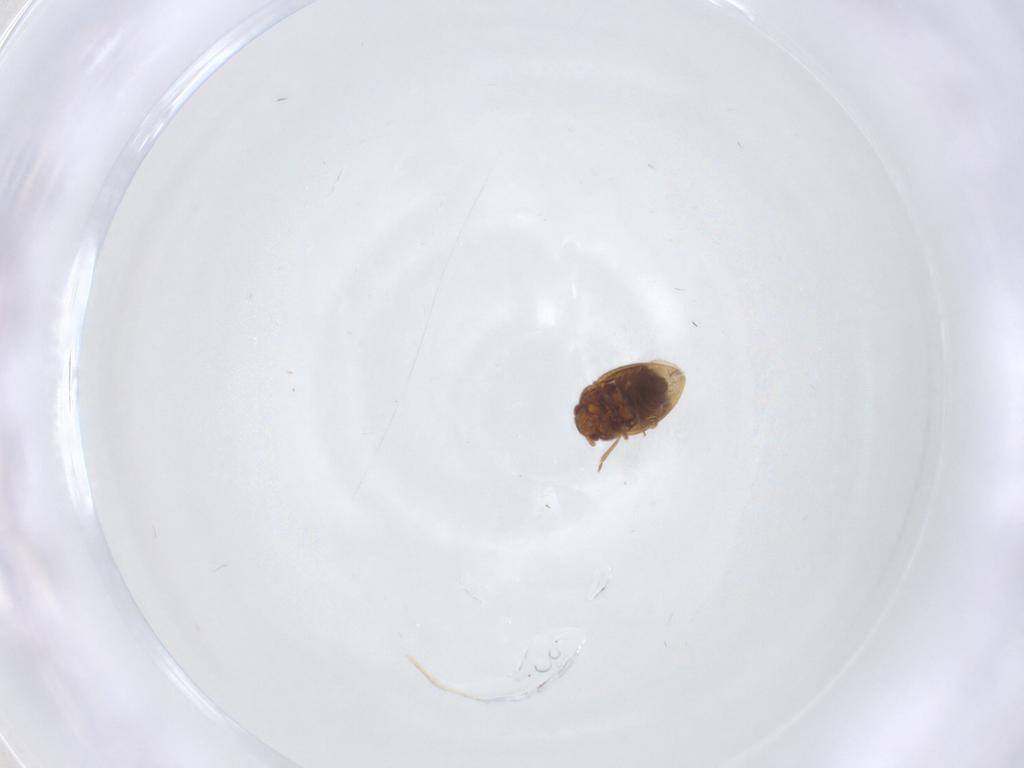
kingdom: Animalia
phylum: Arthropoda
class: Insecta
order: Hemiptera
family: Schizopteridae
